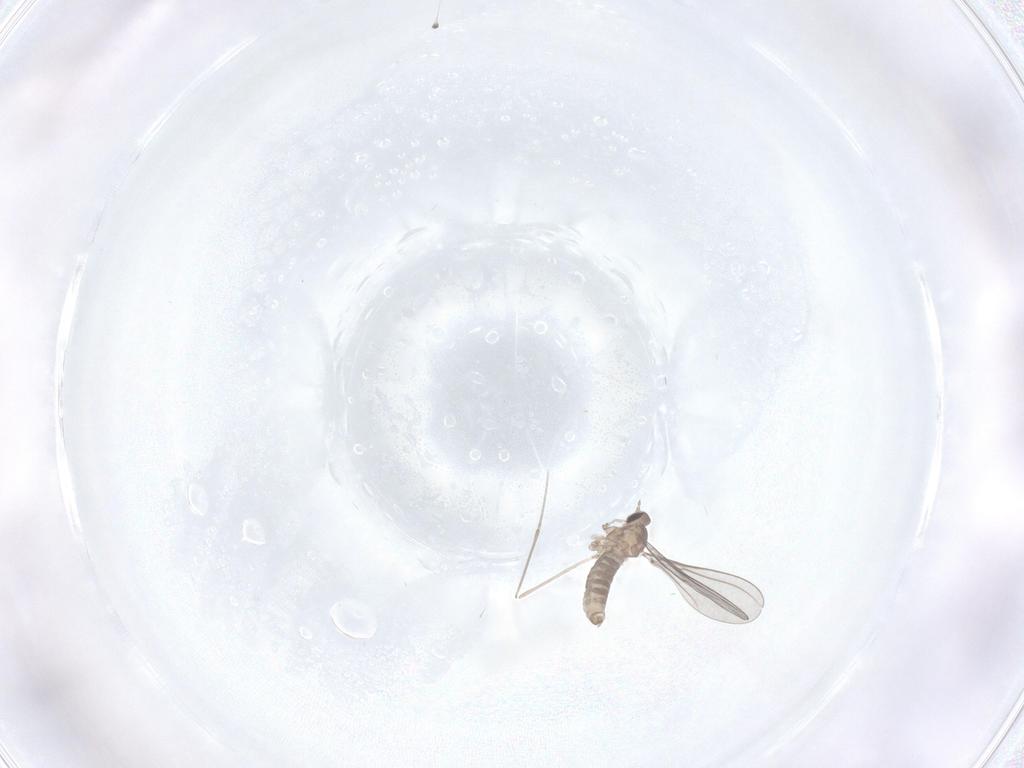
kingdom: Animalia
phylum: Arthropoda
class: Insecta
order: Diptera
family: Cecidomyiidae
